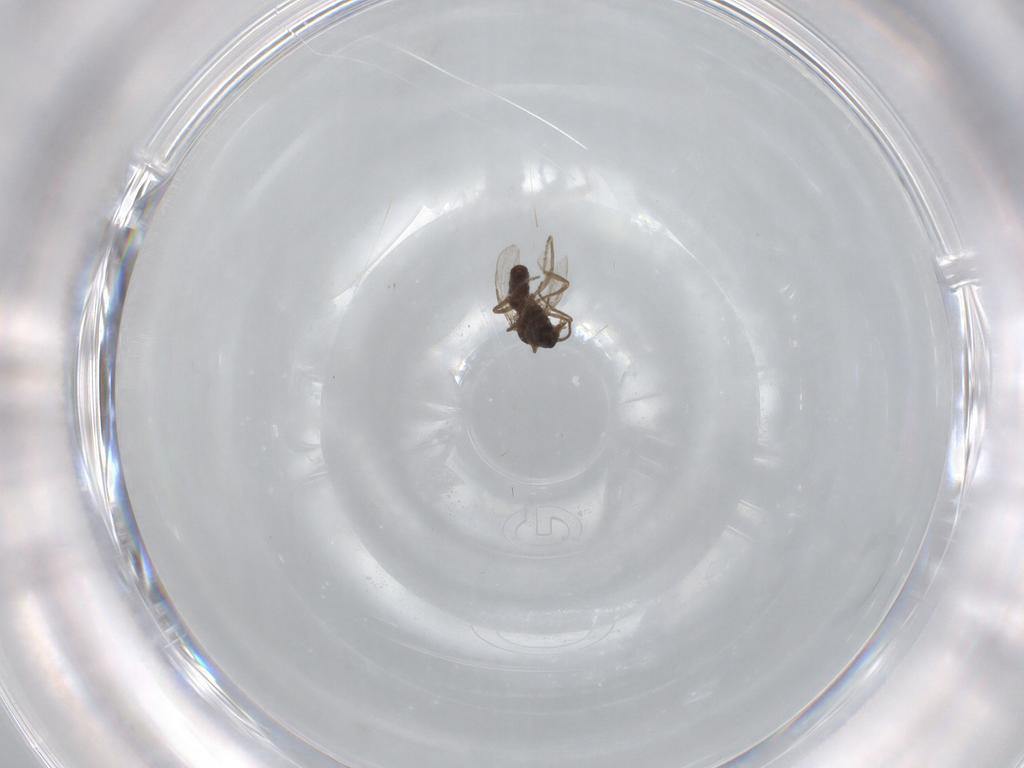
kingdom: Animalia
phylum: Arthropoda
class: Insecta
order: Diptera
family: Ceratopogonidae
